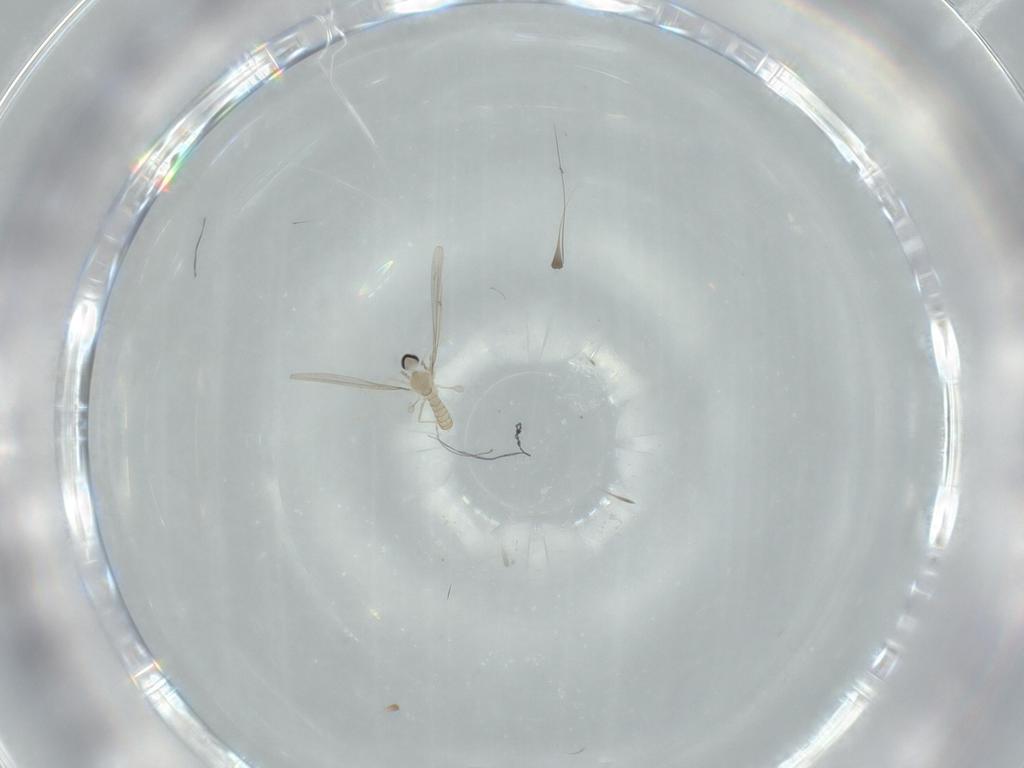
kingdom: Animalia
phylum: Arthropoda
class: Insecta
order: Diptera
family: Cecidomyiidae
